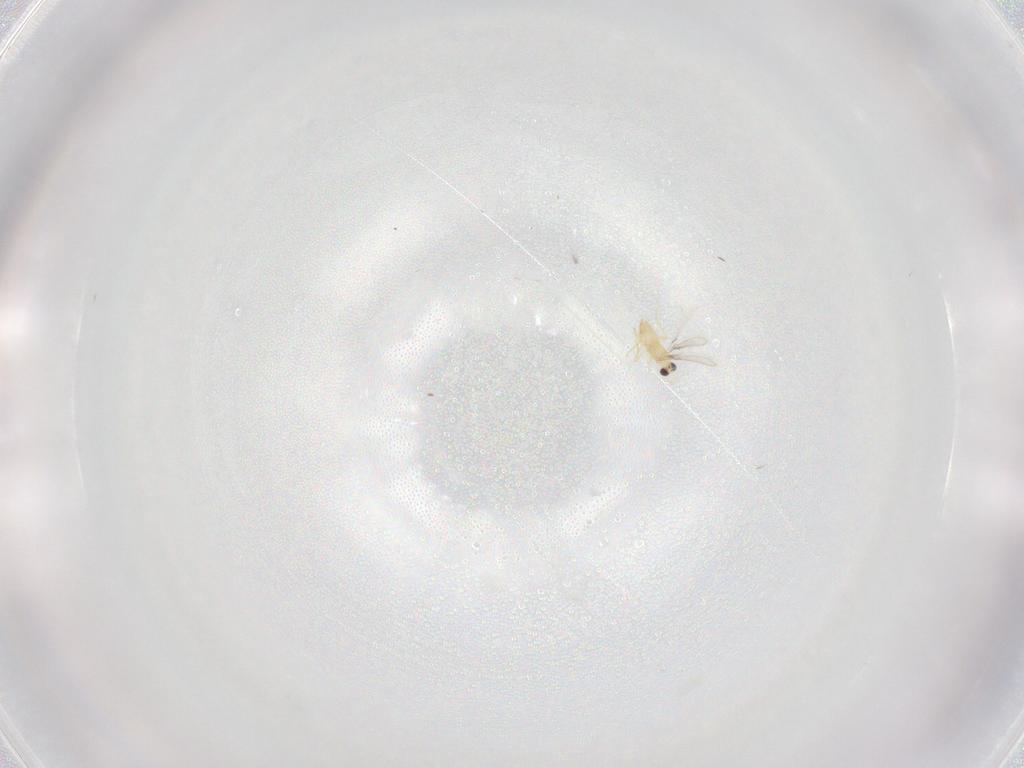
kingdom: Animalia
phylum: Arthropoda
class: Insecta
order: Hymenoptera
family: Mymaridae
